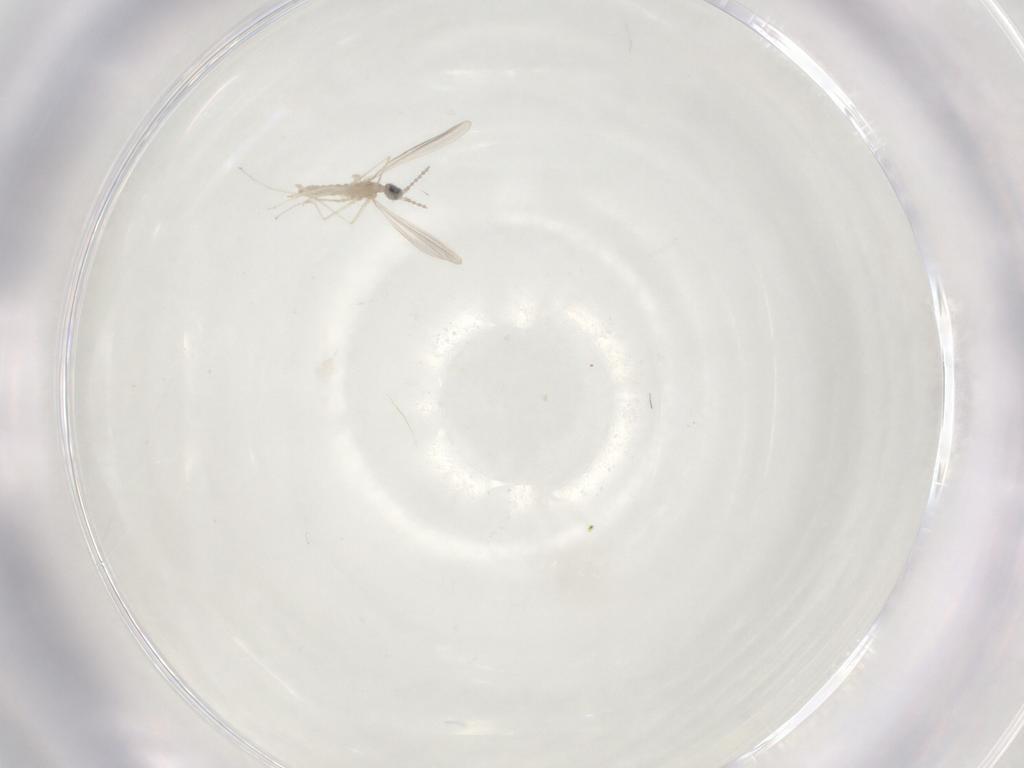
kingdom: Animalia
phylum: Arthropoda
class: Insecta
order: Diptera
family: Cecidomyiidae
